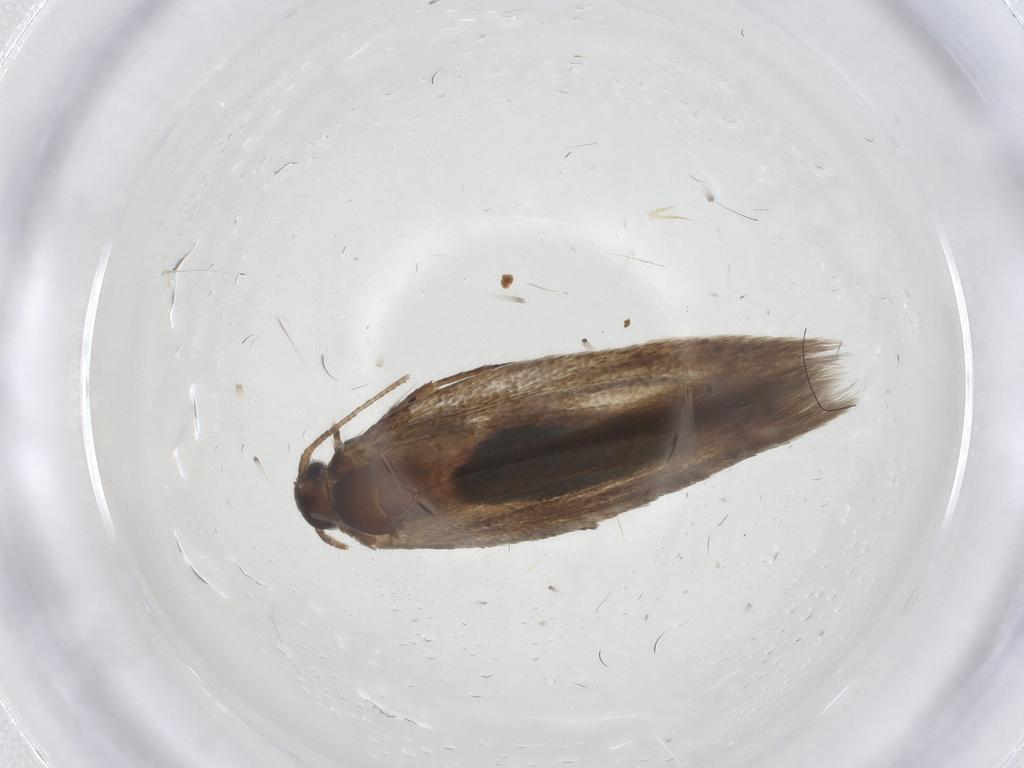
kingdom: Animalia
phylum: Arthropoda
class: Insecta
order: Lepidoptera
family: Cosmopterigidae
